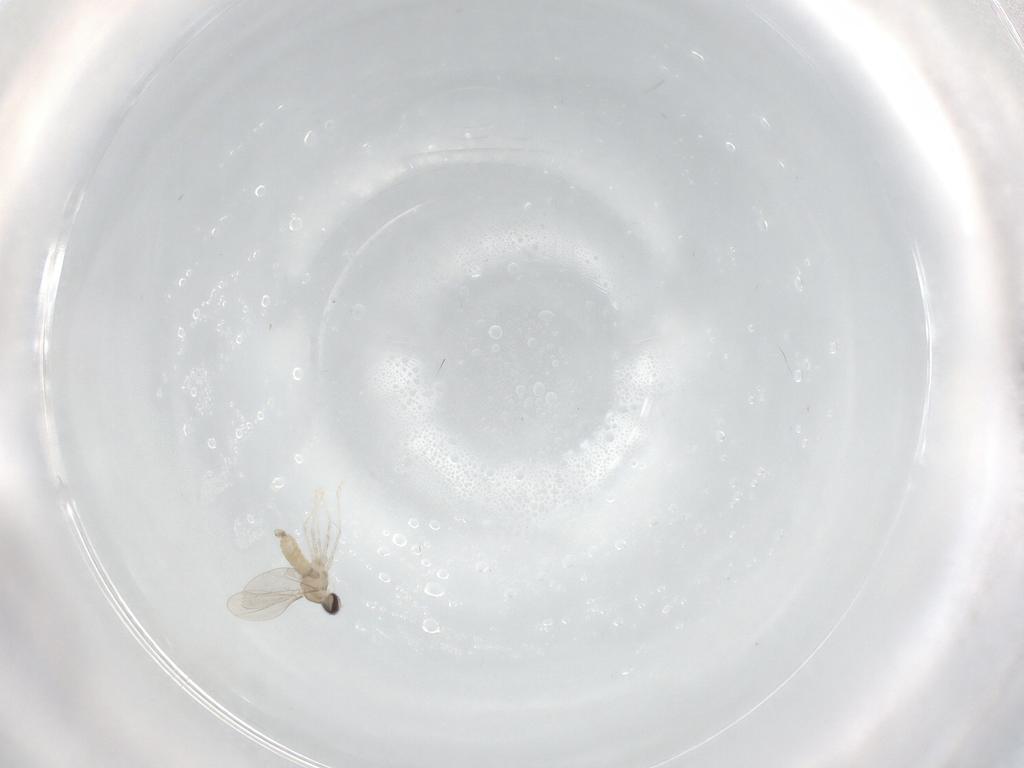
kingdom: Animalia
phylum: Arthropoda
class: Insecta
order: Diptera
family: Cecidomyiidae
